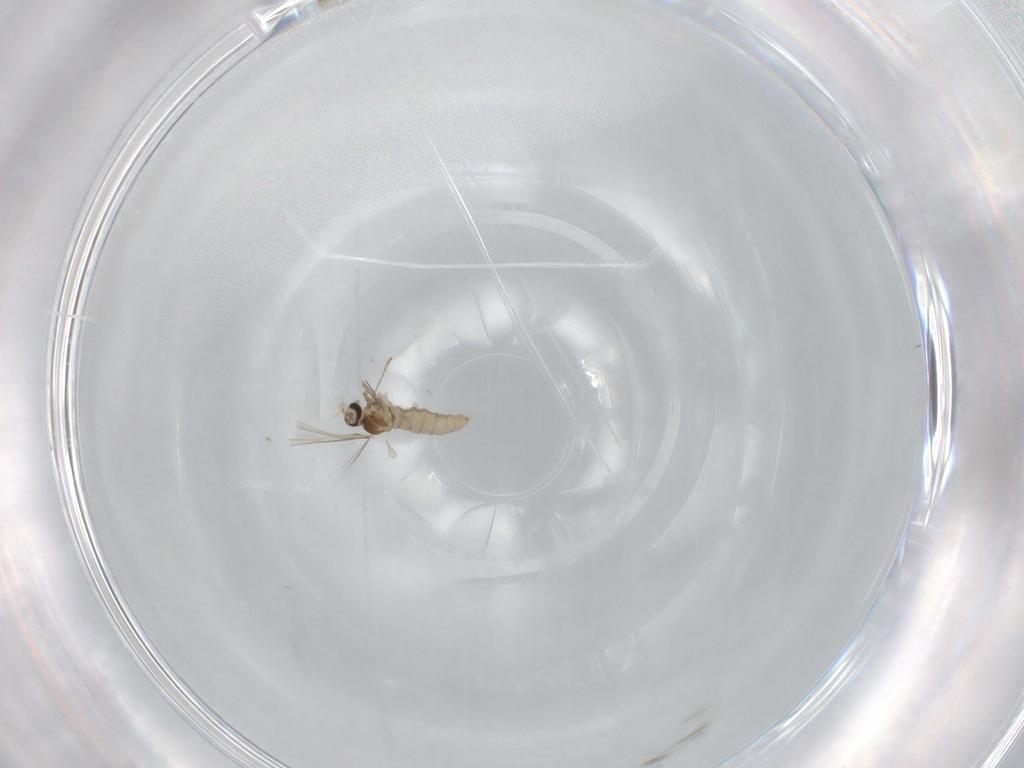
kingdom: Animalia
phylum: Arthropoda
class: Insecta
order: Diptera
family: Cecidomyiidae
